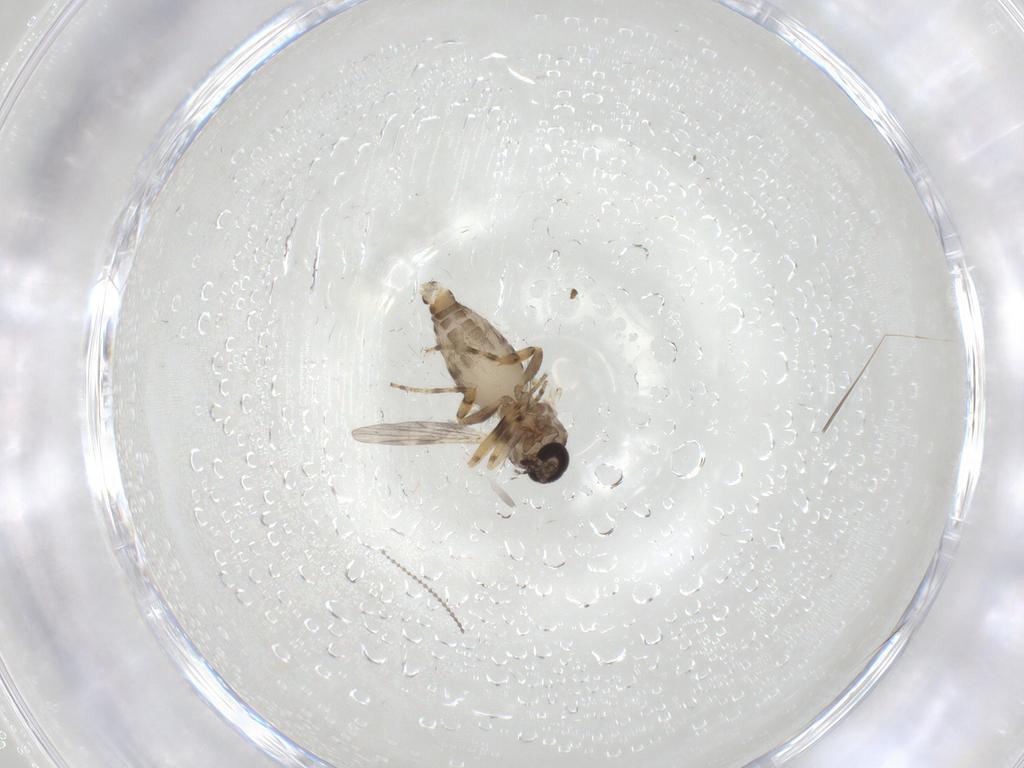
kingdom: Animalia
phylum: Arthropoda
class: Insecta
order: Diptera
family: Ceratopogonidae
